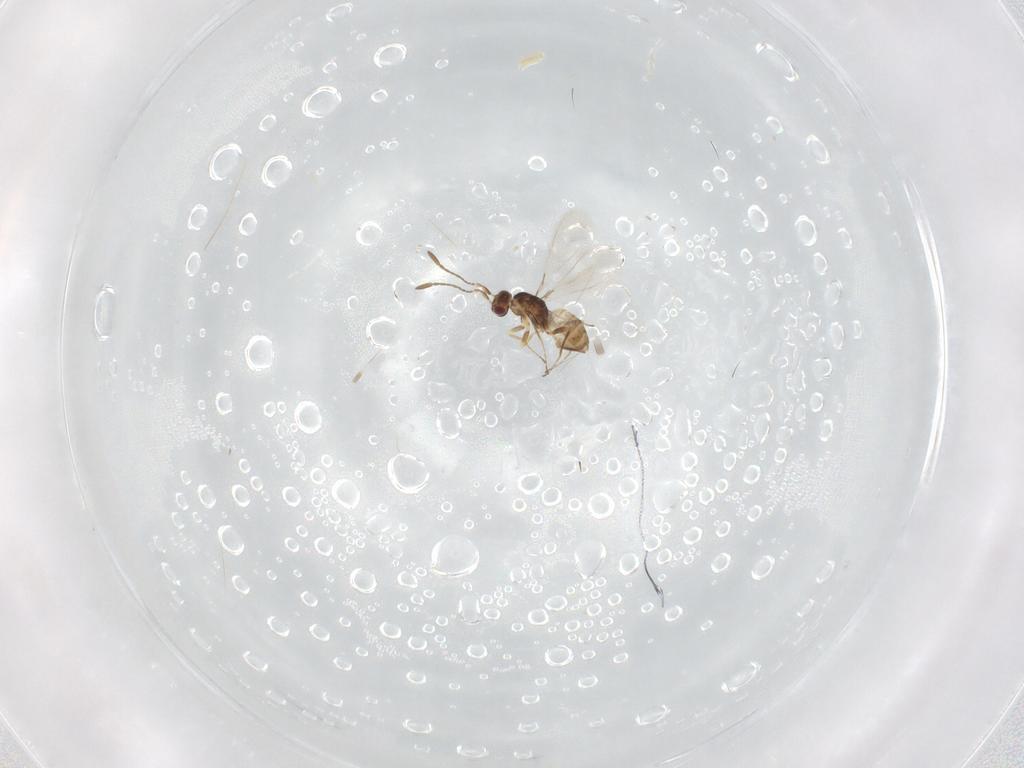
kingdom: Animalia
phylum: Arthropoda
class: Insecta
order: Hymenoptera
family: Mymaridae
